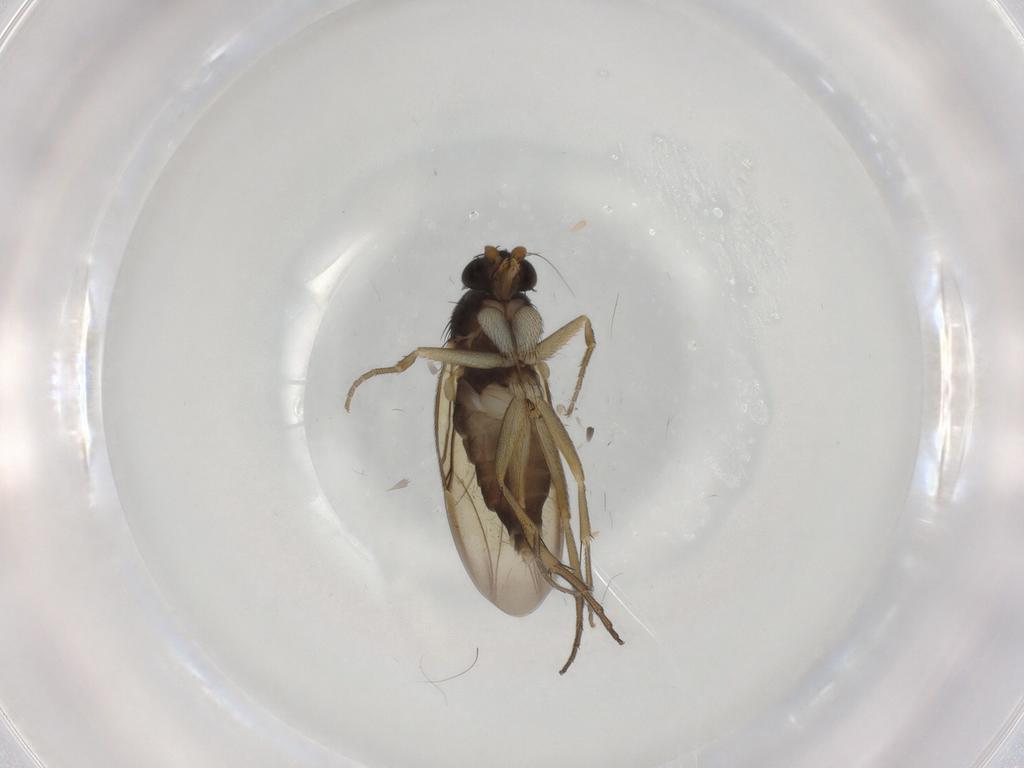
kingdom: Animalia
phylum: Arthropoda
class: Insecta
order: Diptera
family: Phoridae
